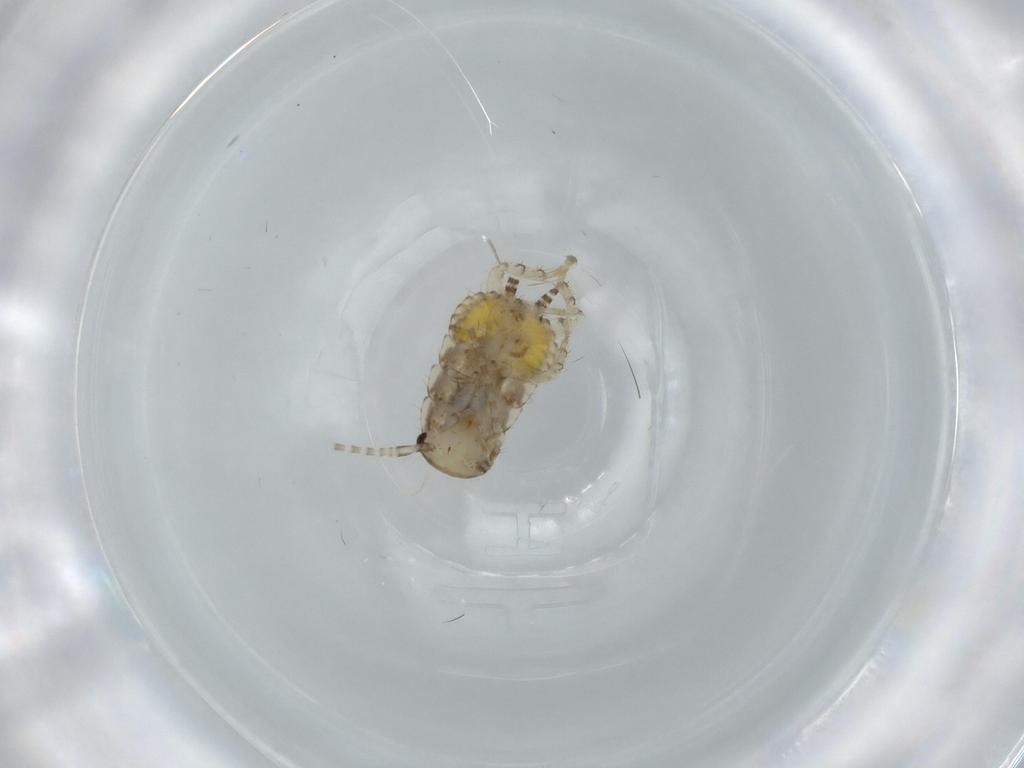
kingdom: Animalia
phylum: Arthropoda
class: Insecta
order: Blattodea
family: Ectobiidae
